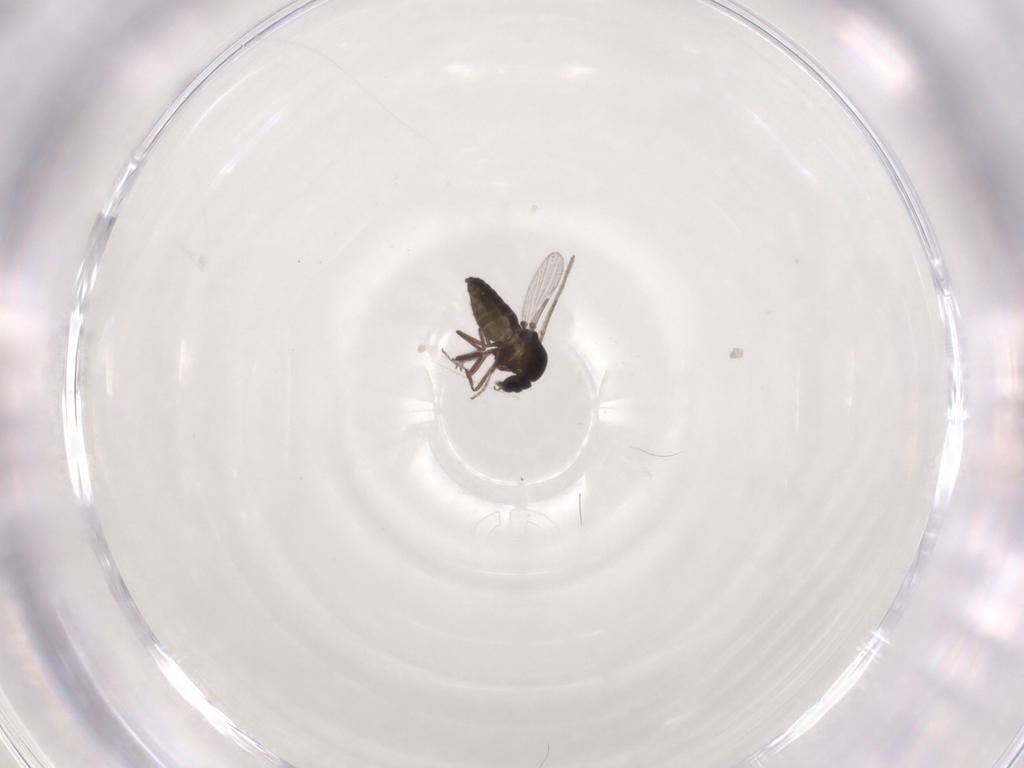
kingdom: Animalia
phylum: Arthropoda
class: Insecta
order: Diptera
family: Ceratopogonidae
